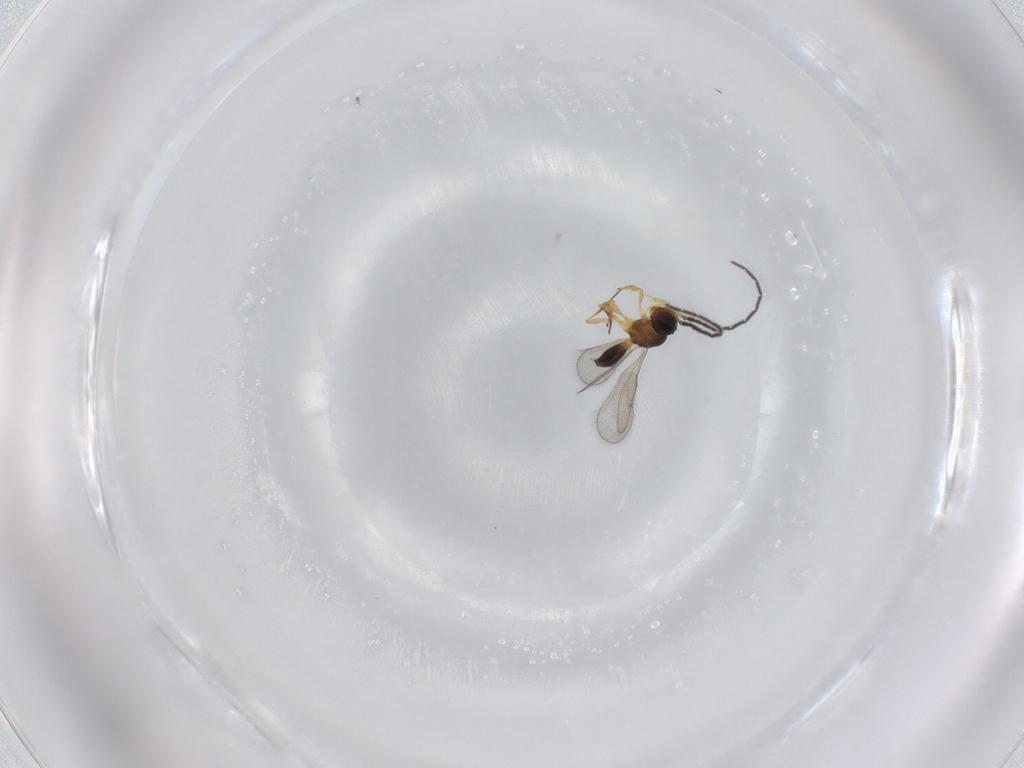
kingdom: Animalia
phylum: Arthropoda
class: Insecta
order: Hymenoptera
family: Scelionidae
